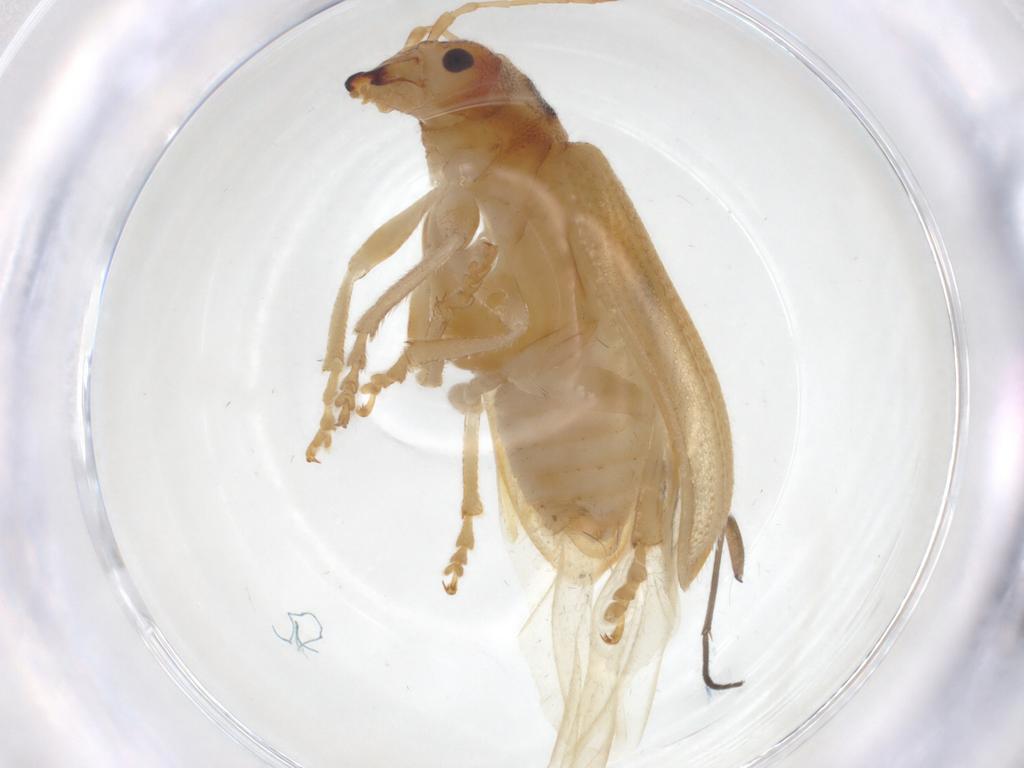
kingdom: Animalia
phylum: Arthropoda
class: Insecta
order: Coleoptera
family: Chrysomelidae
